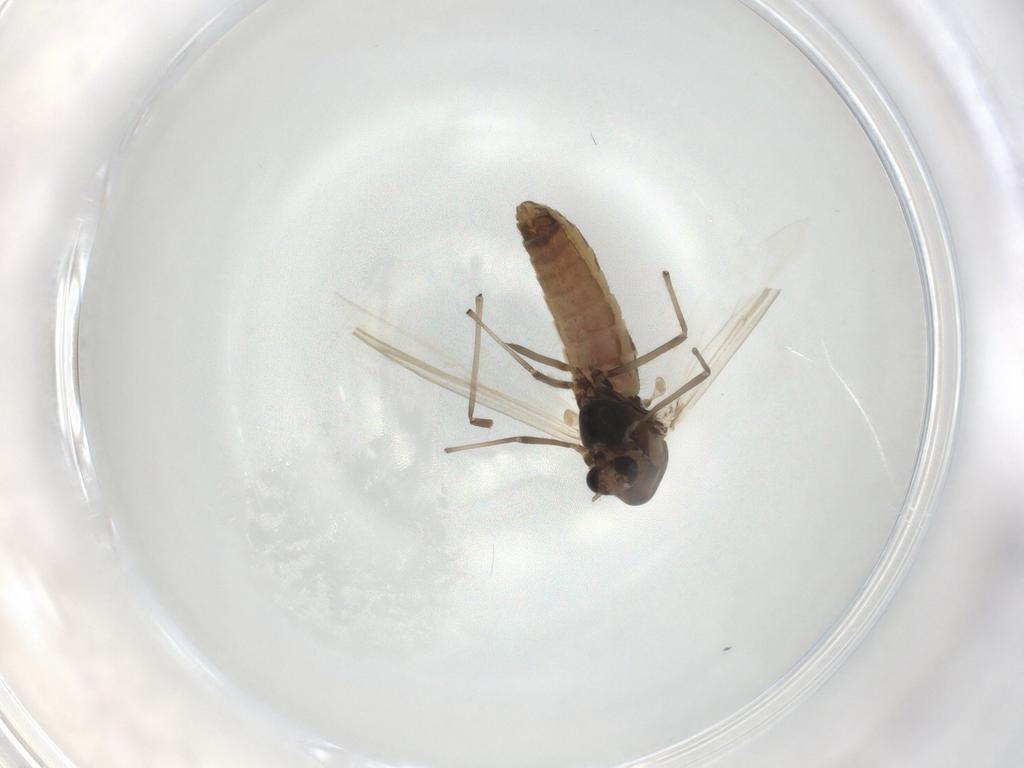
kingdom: Animalia
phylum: Arthropoda
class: Insecta
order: Diptera
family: Chironomidae
